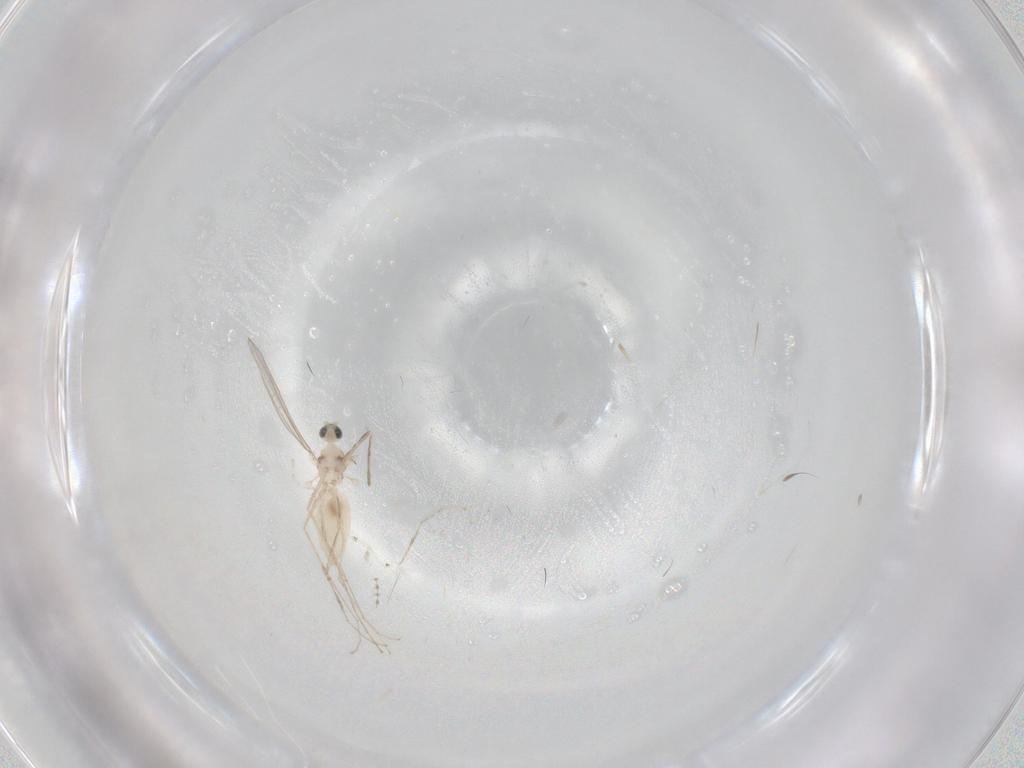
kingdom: Animalia
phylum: Arthropoda
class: Insecta
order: Diptera
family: Cecidomyiidae
